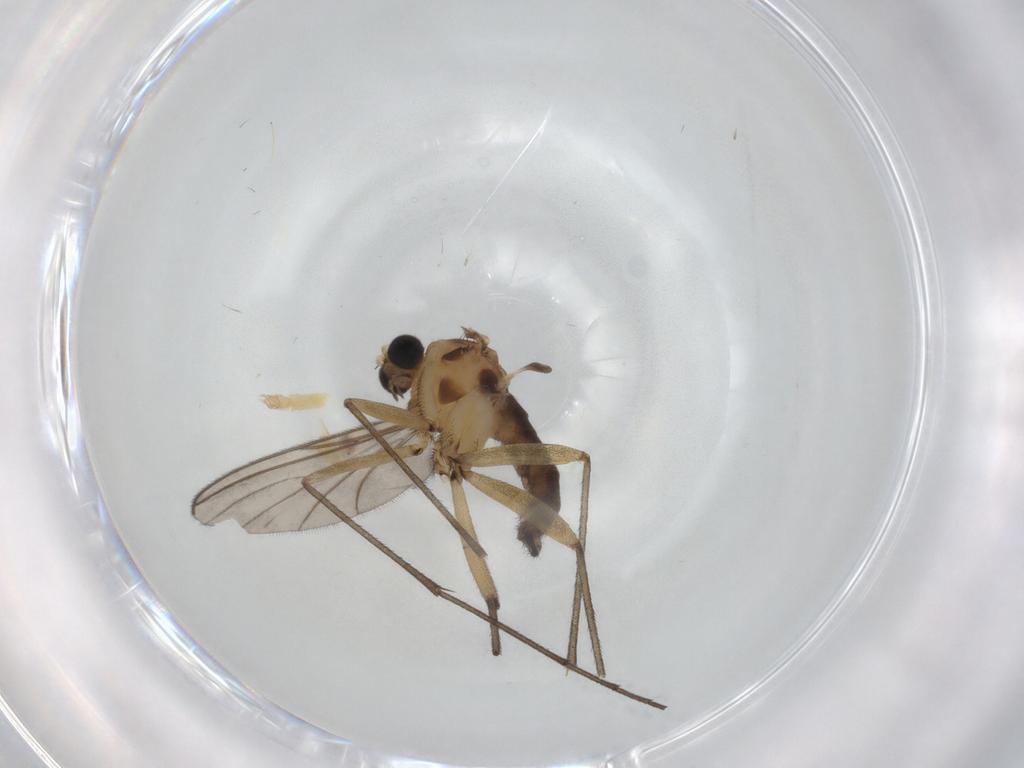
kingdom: Animalia
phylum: Arthropoda
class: Insecta
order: Diptera
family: Sciaridae
